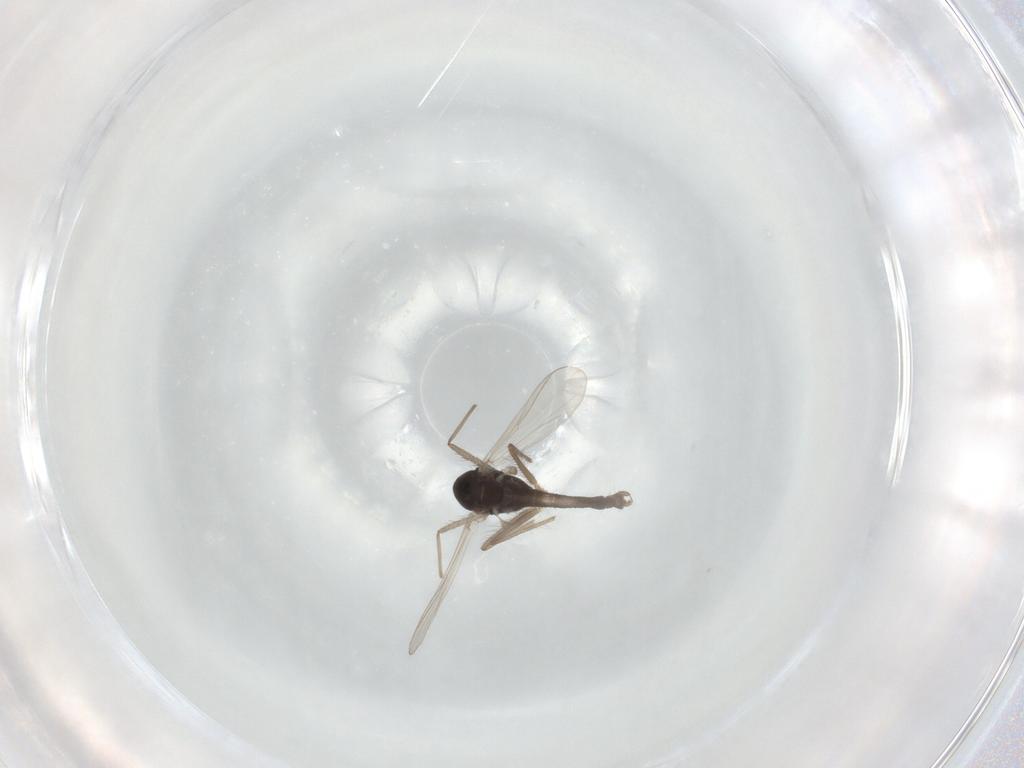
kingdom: Animalia
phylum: Arthropoda
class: Insecta
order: Diptera
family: Chironomidae
